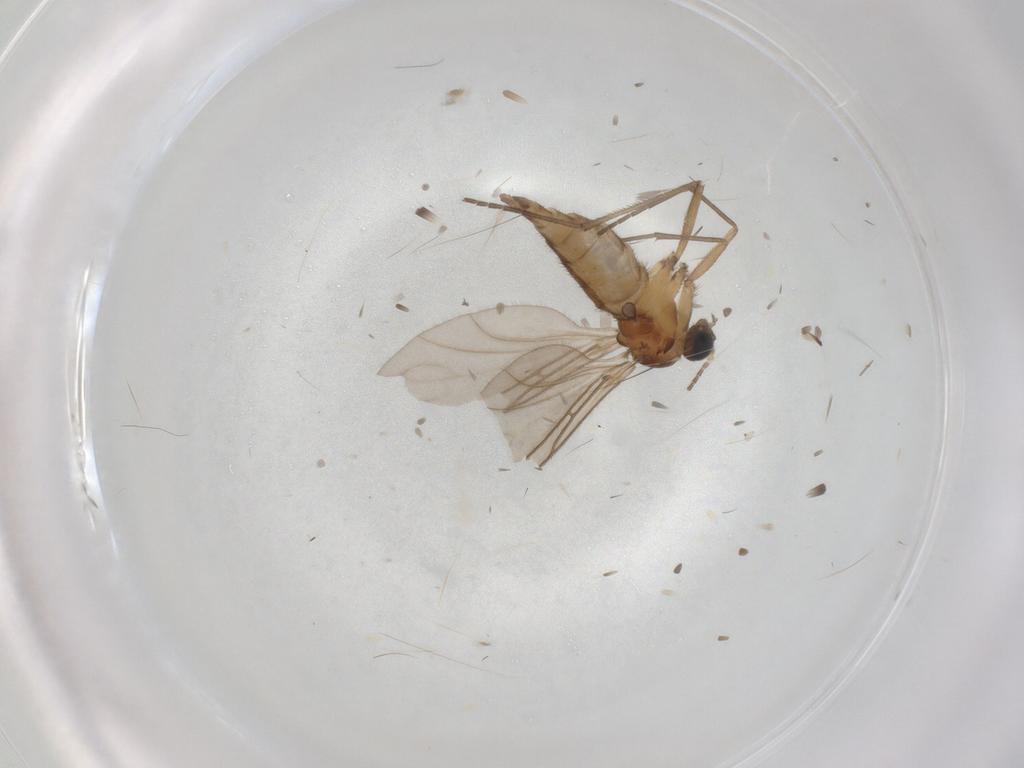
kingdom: Animalia
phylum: Arthropoda
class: Insecta
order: Diptera
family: Sciaridae
